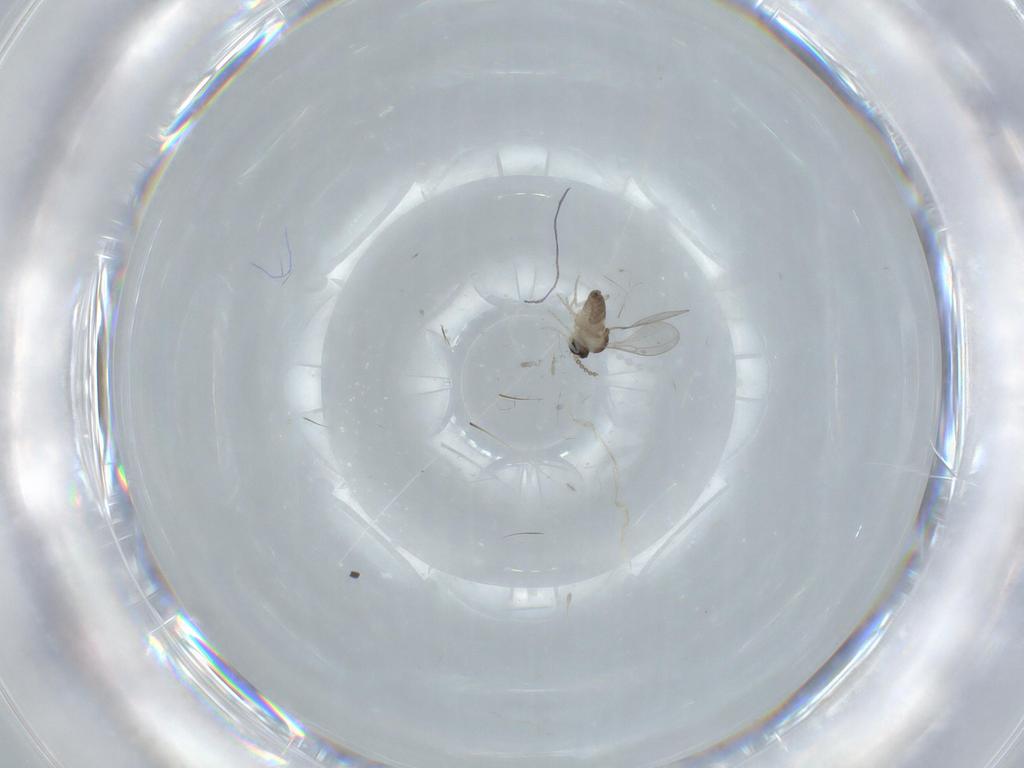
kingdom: Animalia
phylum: Arthropoda
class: Insecta
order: Diptera
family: Cecidomyiidae
